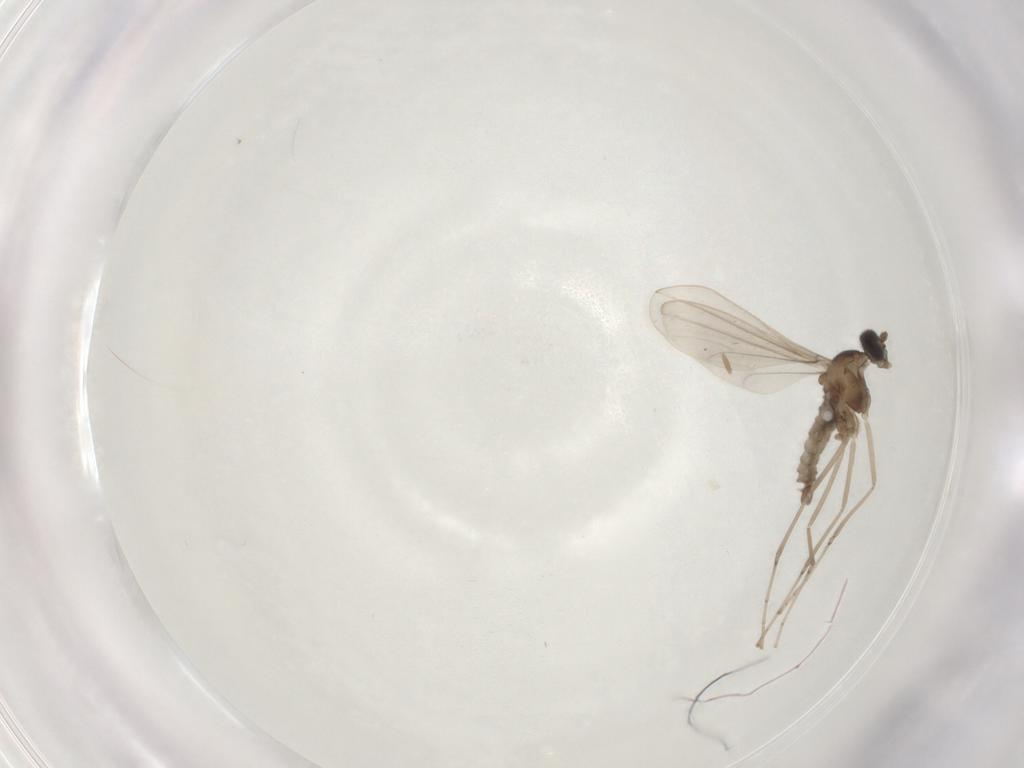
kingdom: Animalia
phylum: Arthropoda
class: Insecta
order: Diptera
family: Cecidomyiidae
